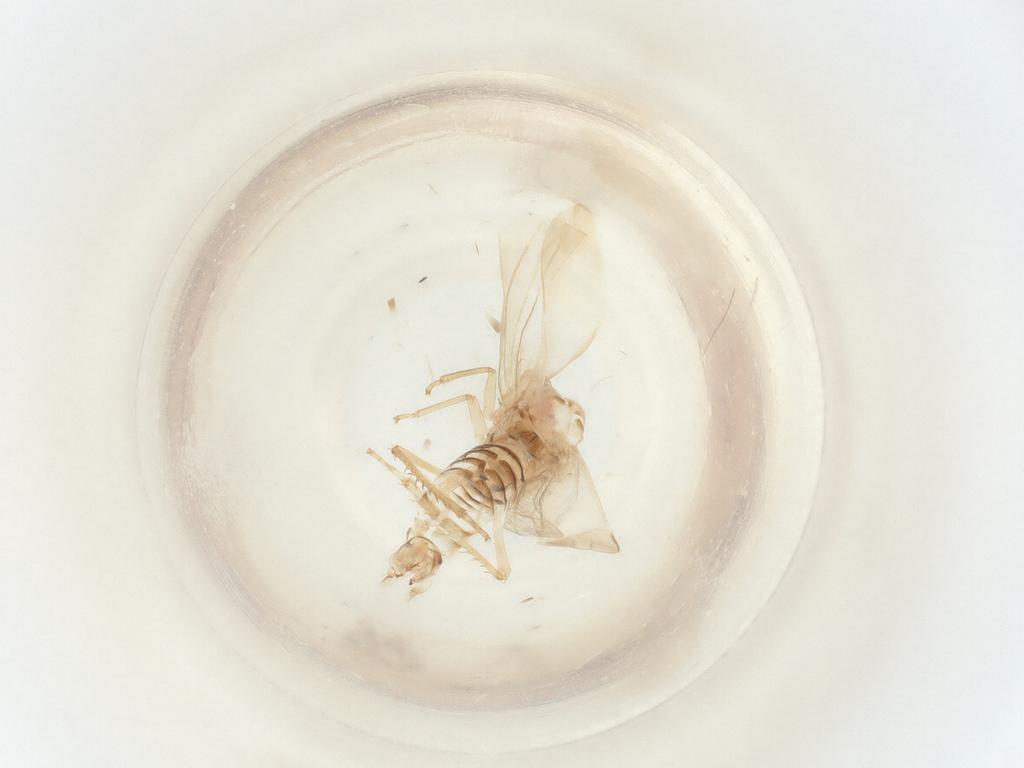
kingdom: Animalia
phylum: Arthropoda
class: Insecta
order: Hemiptera
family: Cicadellidae
